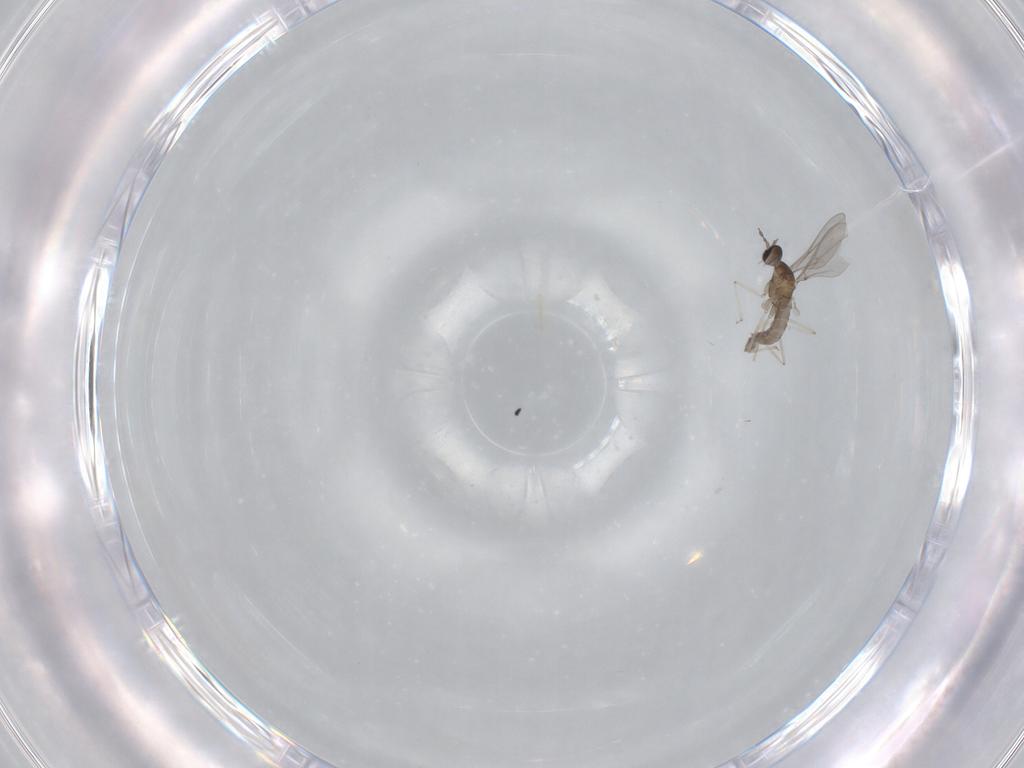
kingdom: Animalia
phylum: Arthropoda
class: Insecta
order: Diptera
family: Cecidomyiidae
